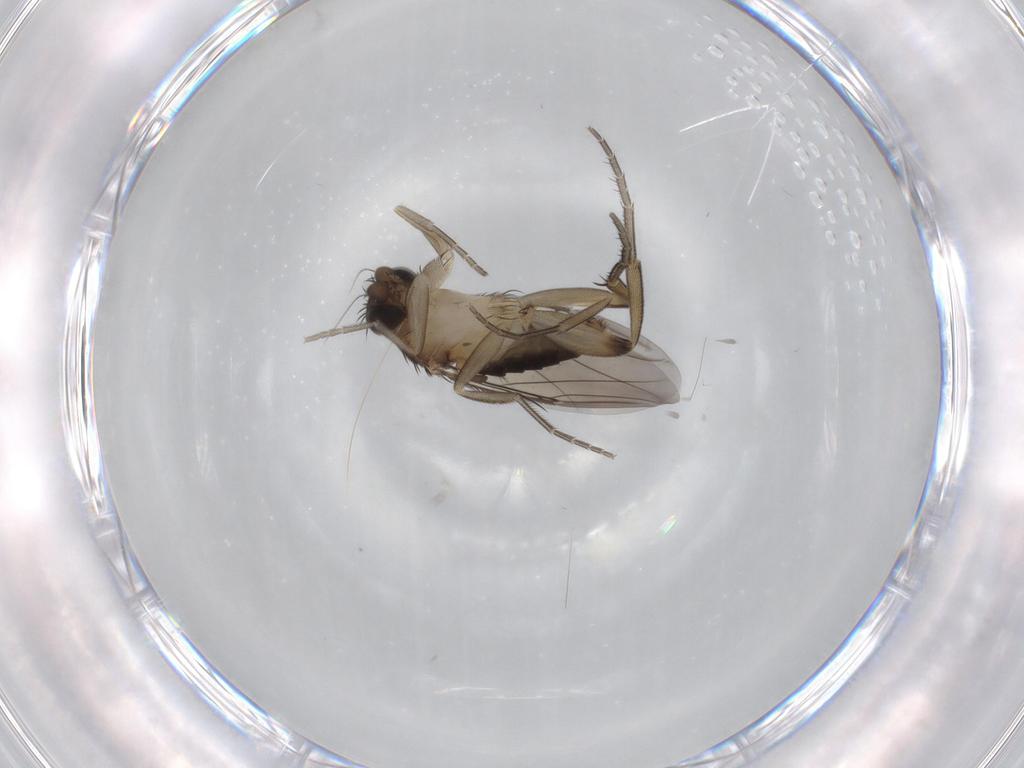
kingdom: Animalia
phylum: Arthropoda
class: Insecta
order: Diptera
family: Phoridae
